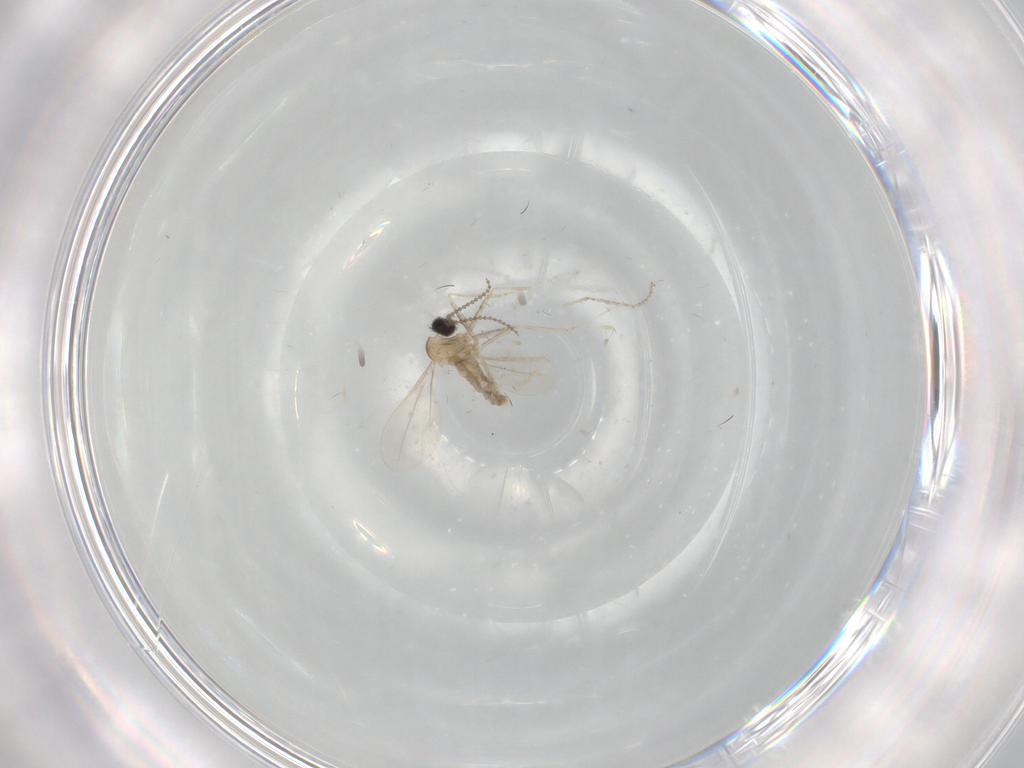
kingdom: Animalia
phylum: Arthropoda
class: Insecta
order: Diptera
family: Cecidomyiidae
